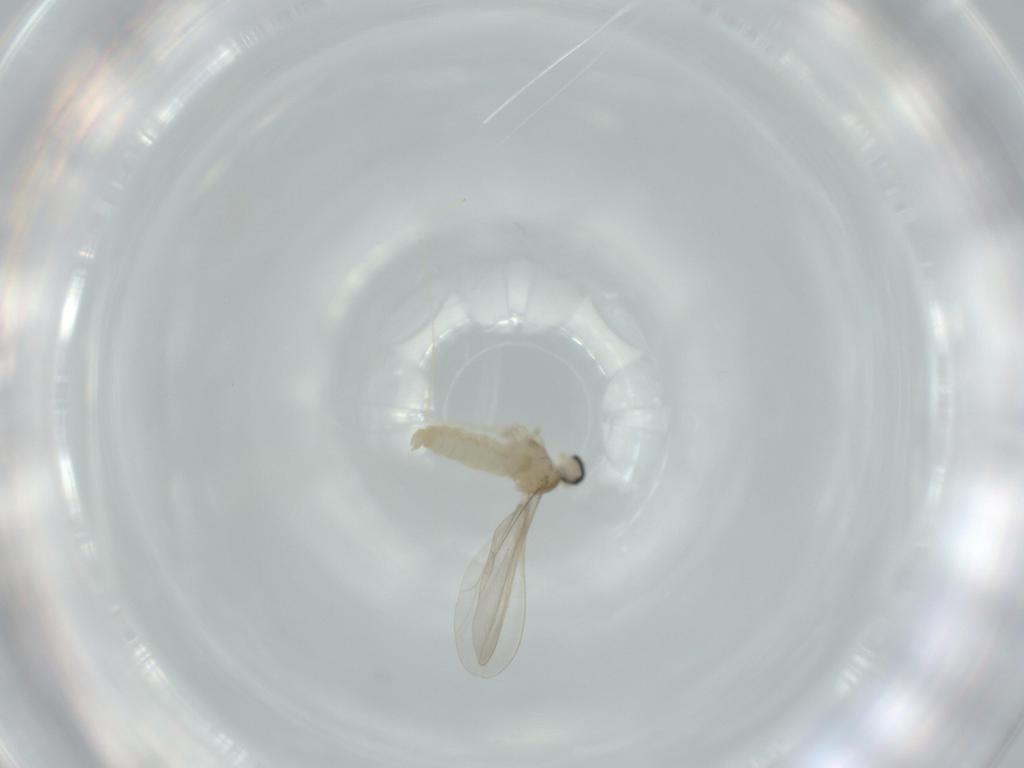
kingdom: Animalia
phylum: Arthropoda
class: Insecta
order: Diptera
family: Cecidomyiidae
